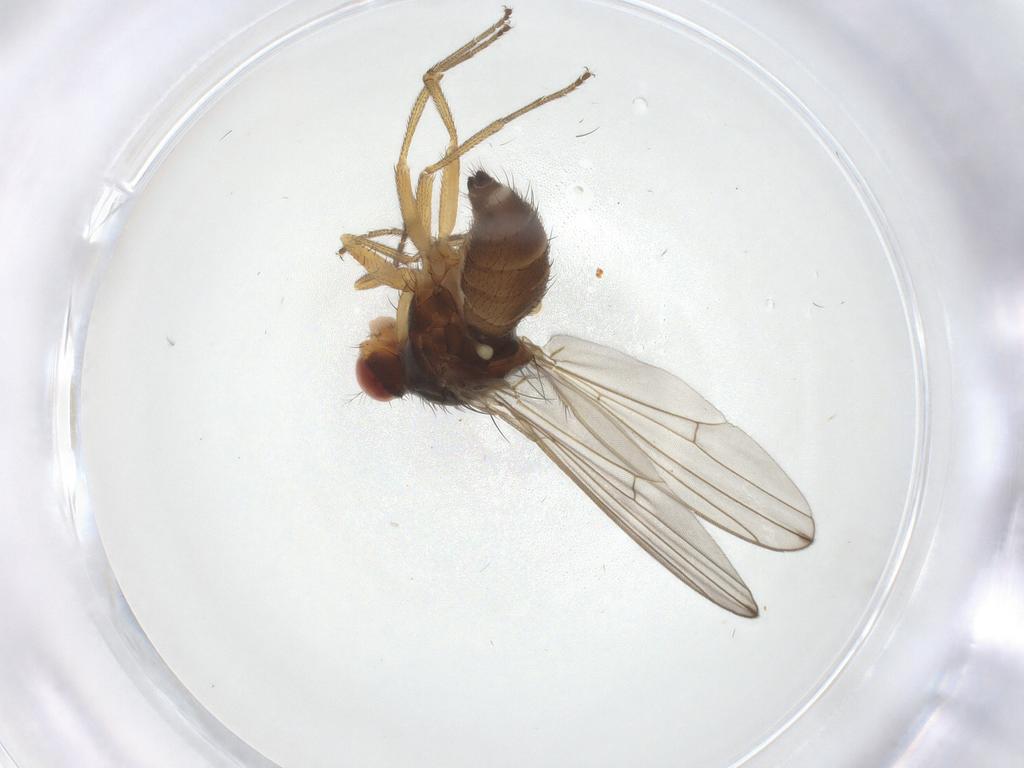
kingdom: Animalia
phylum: Arthropoda
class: Insecta
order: Diptera
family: Drosophilidae
